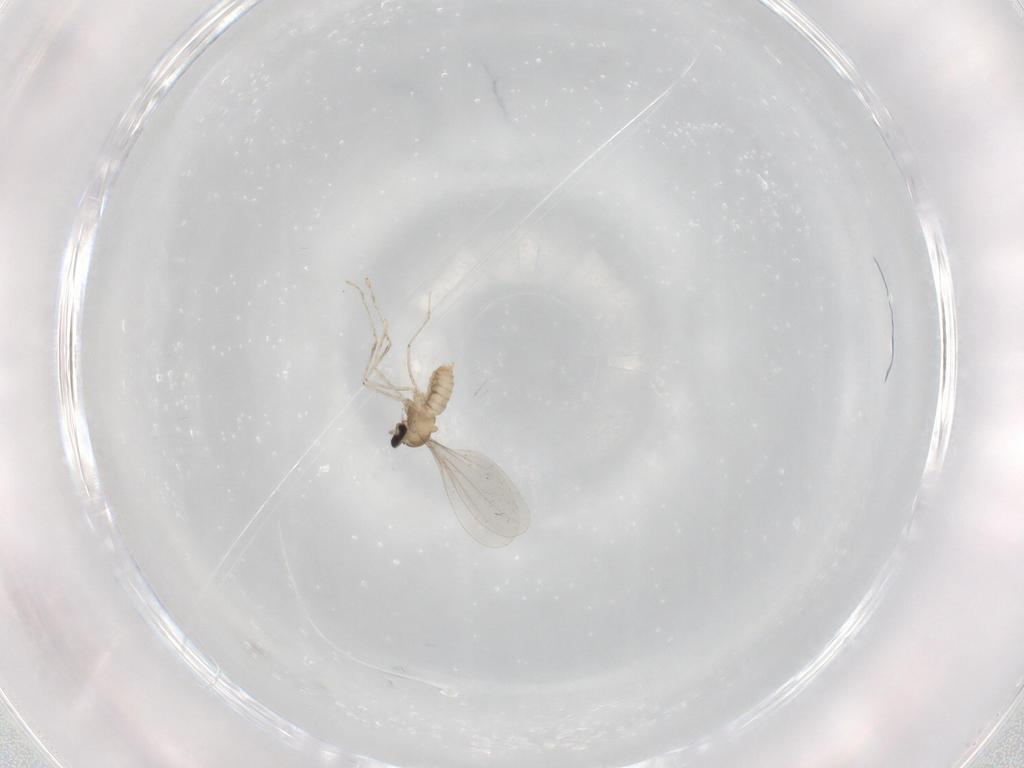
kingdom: Animalia
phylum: Arthropoda
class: Insecta
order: Diptera
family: Cecidomyiidae
